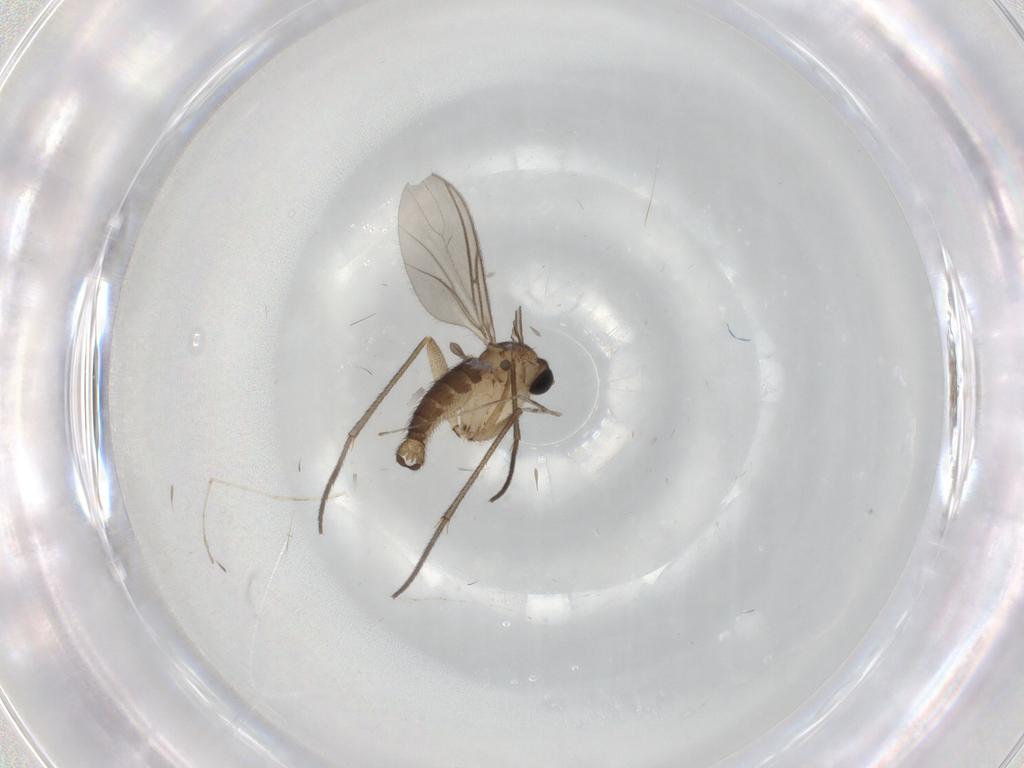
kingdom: Animalia
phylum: Arthropoda
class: Insecta
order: Diptera
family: Sciaridae
